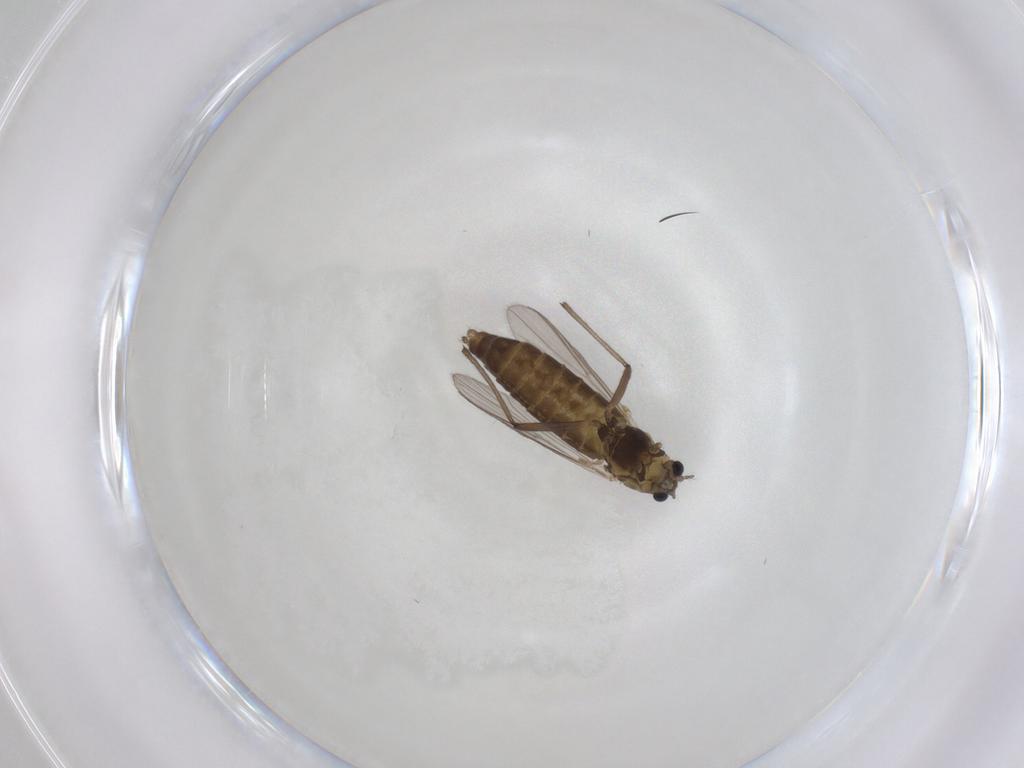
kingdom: Animalia
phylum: Arthropoda
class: Insecta
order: Diptera
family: Chironomidae
